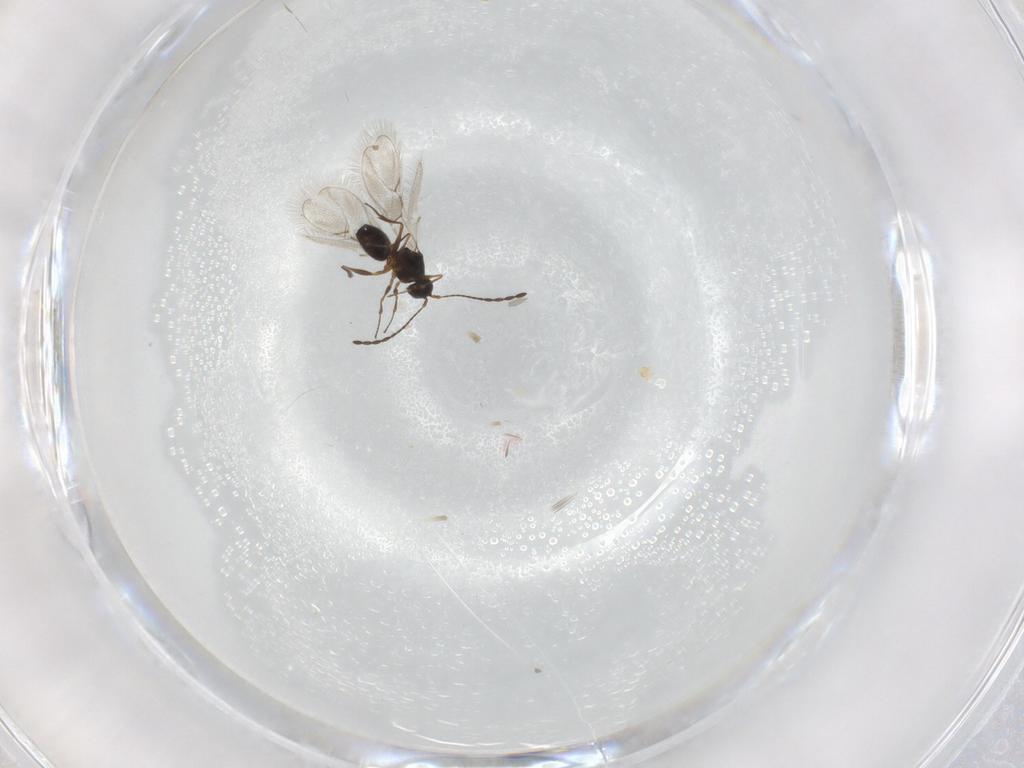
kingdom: Animalia
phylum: Arthropoda
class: Insecta
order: Hymenoptera
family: Figitidae
